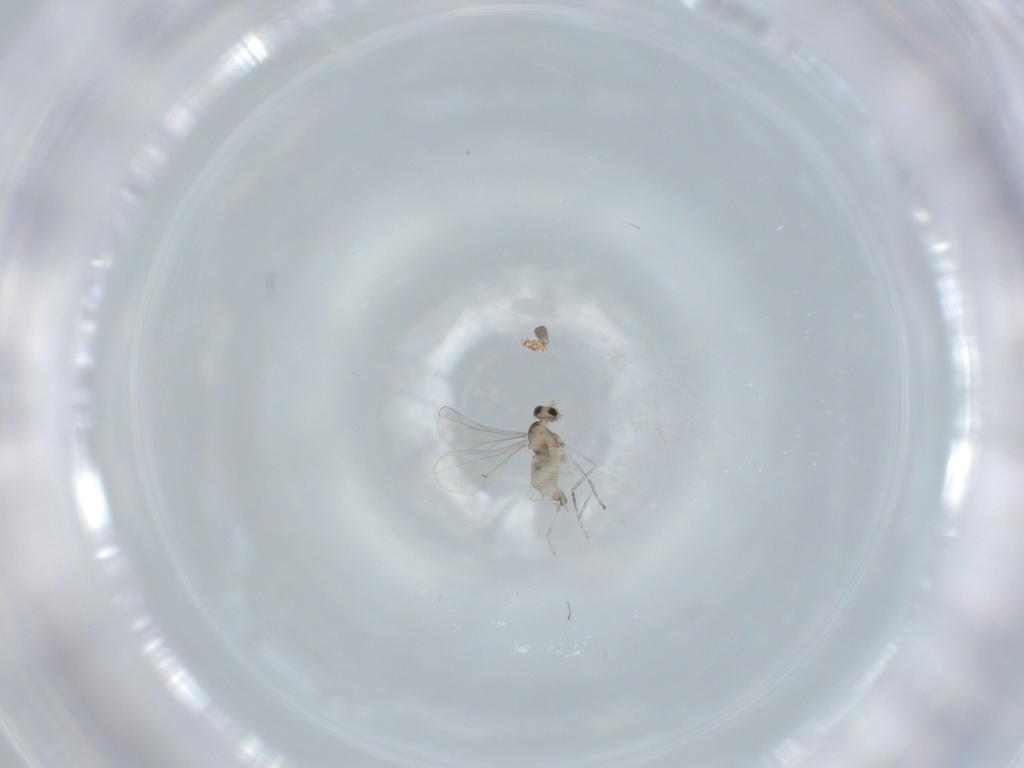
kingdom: Animalia
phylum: Arthropoda
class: Insecta
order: Diptera
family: Cecidomyiidae
